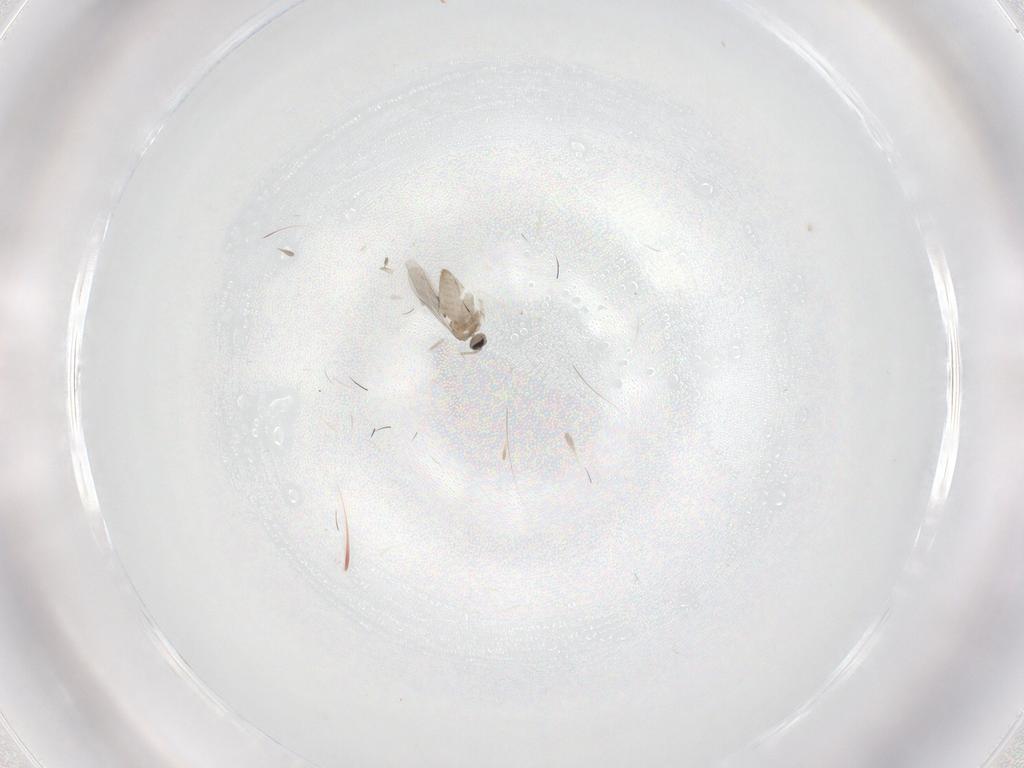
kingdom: Animalia
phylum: Arthropoda
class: Insecta
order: Diptera
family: Cecidomyiidae
